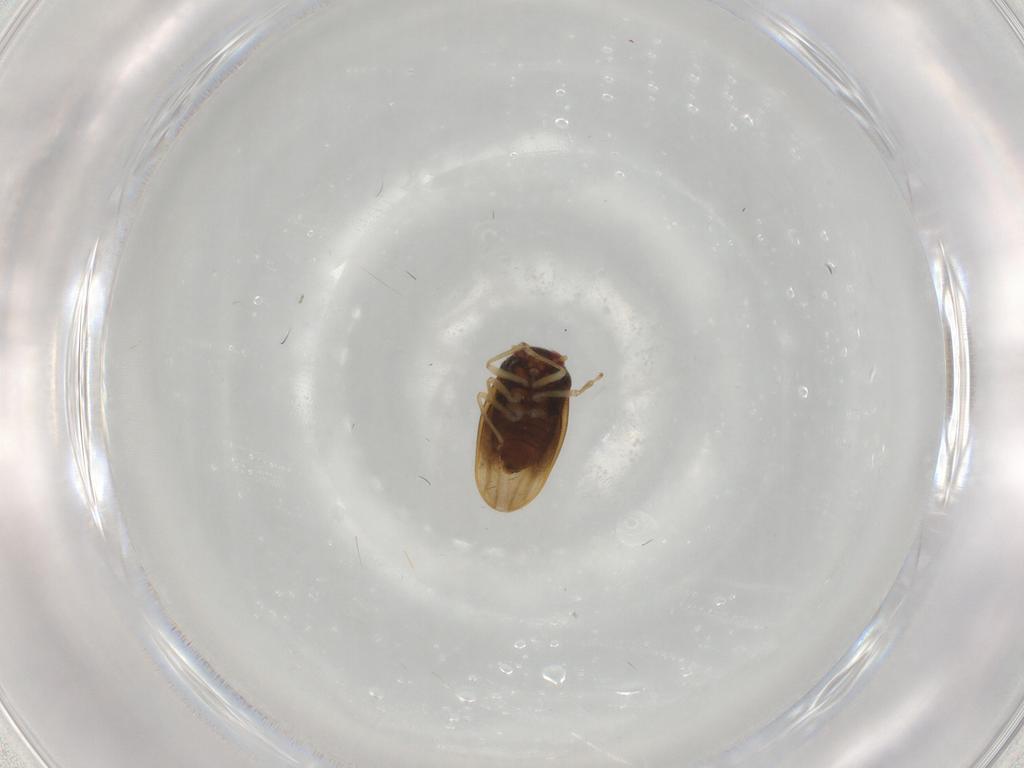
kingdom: Animalia
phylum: Arthropoda
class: Insecta
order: Hemiptera
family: Schizopteridae
